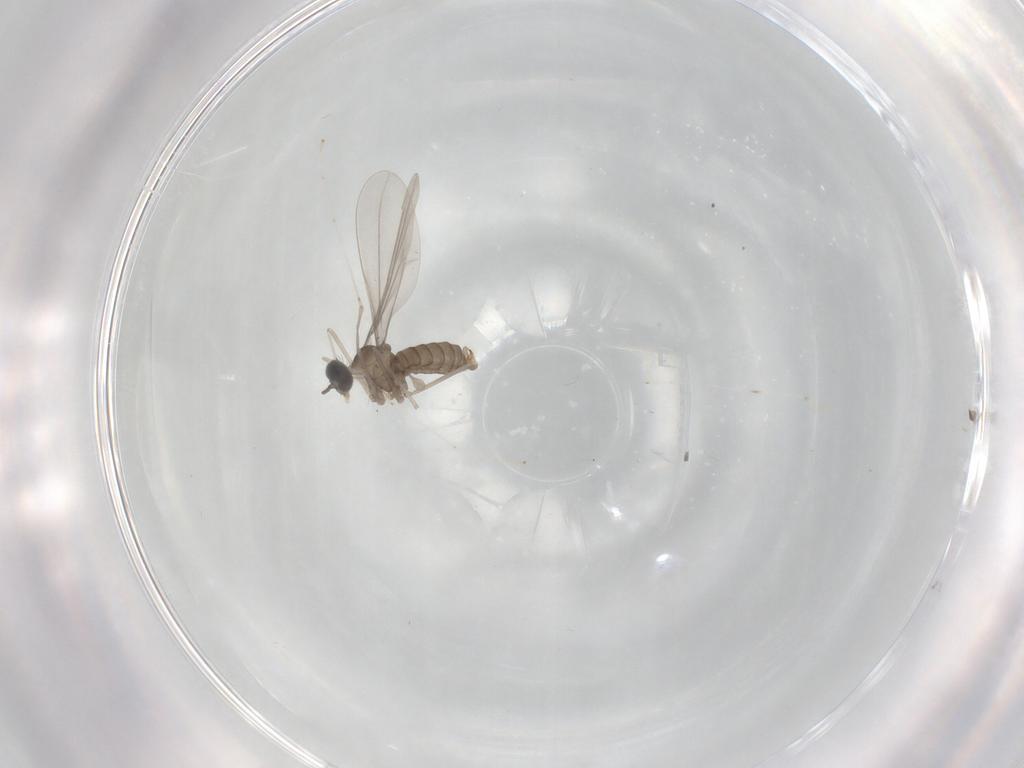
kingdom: Animalia
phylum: Arthropoda
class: Insecta
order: Diptera
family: Cecidomyiidae
